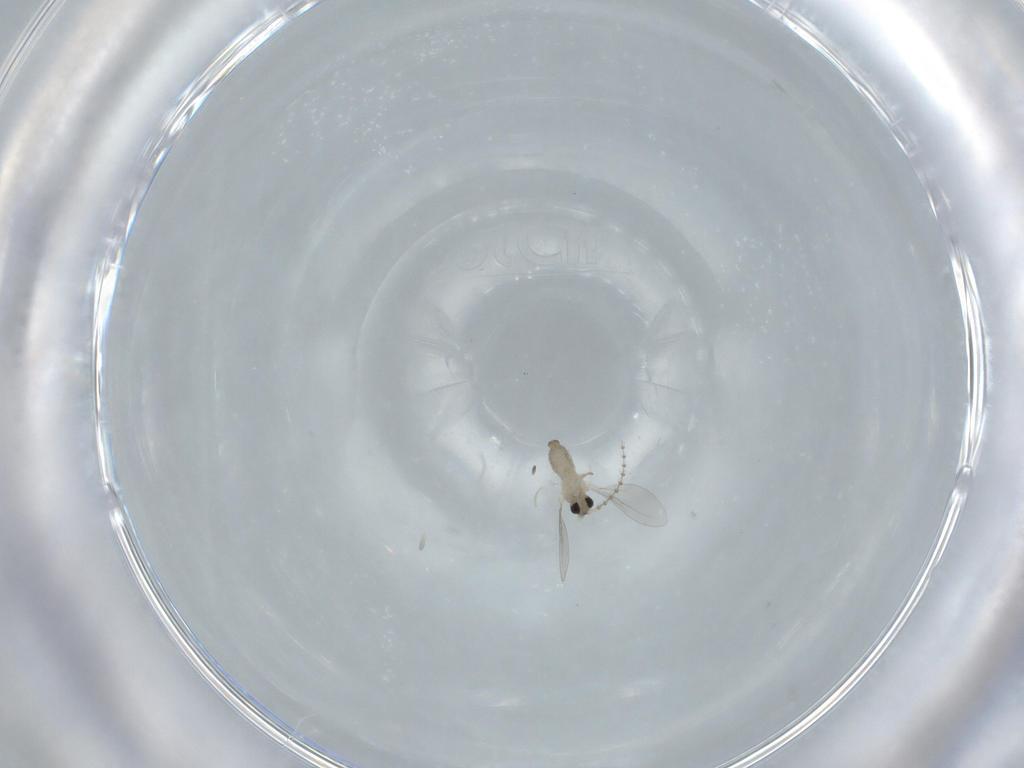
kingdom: Animalia
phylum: Arthropoda
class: Insecta
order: Diptera
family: Cecidomyiidae
